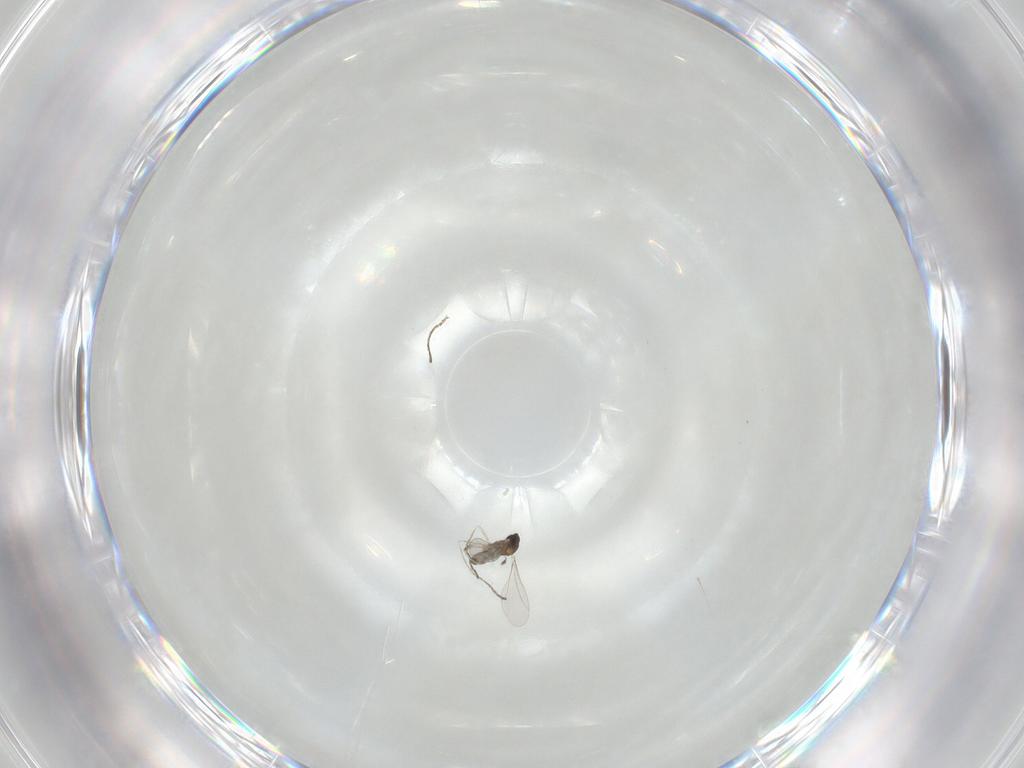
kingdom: Animalia
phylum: Arthropoda
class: Insecta
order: Diptera
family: Cecidomyiidae
